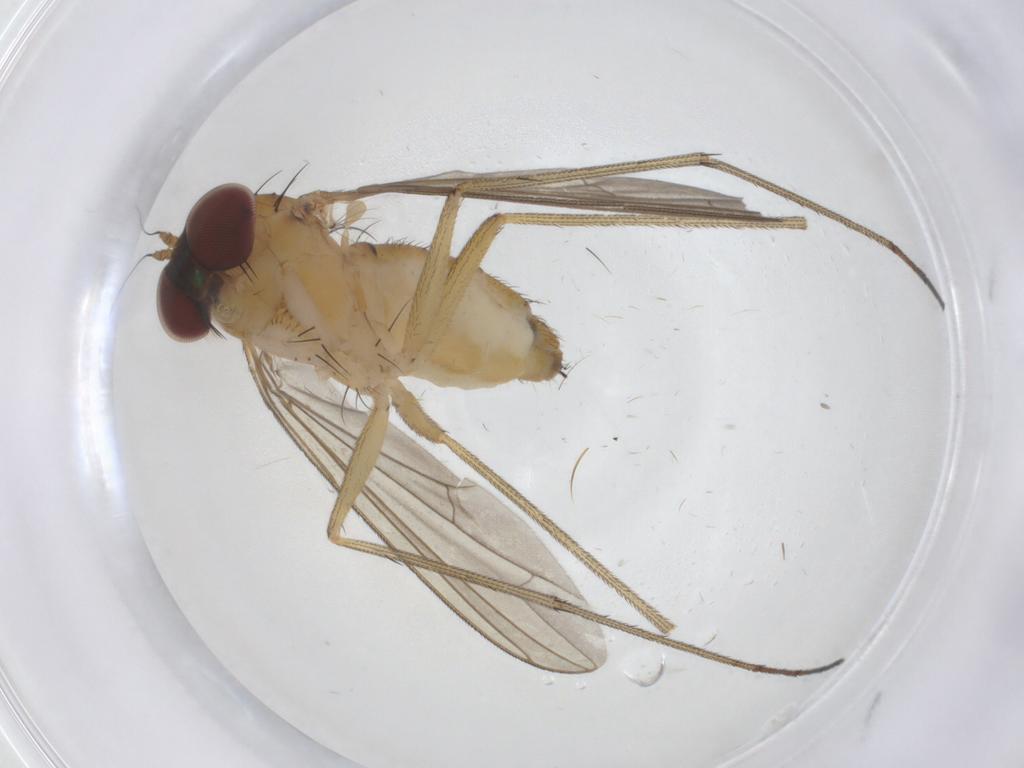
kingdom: Animalia
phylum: Arthropoda
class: Insecta
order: Diptera
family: Dolichopodidae
